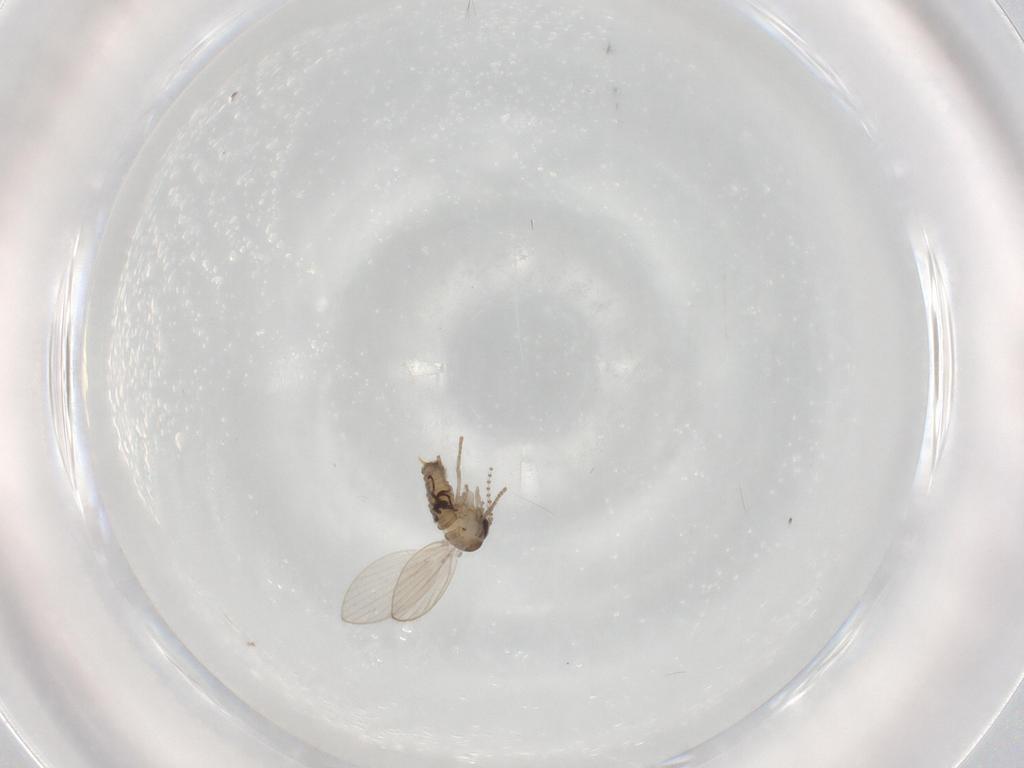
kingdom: Animalia
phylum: Arthropoda
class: Insecta
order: Diptera
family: Psychodidae
